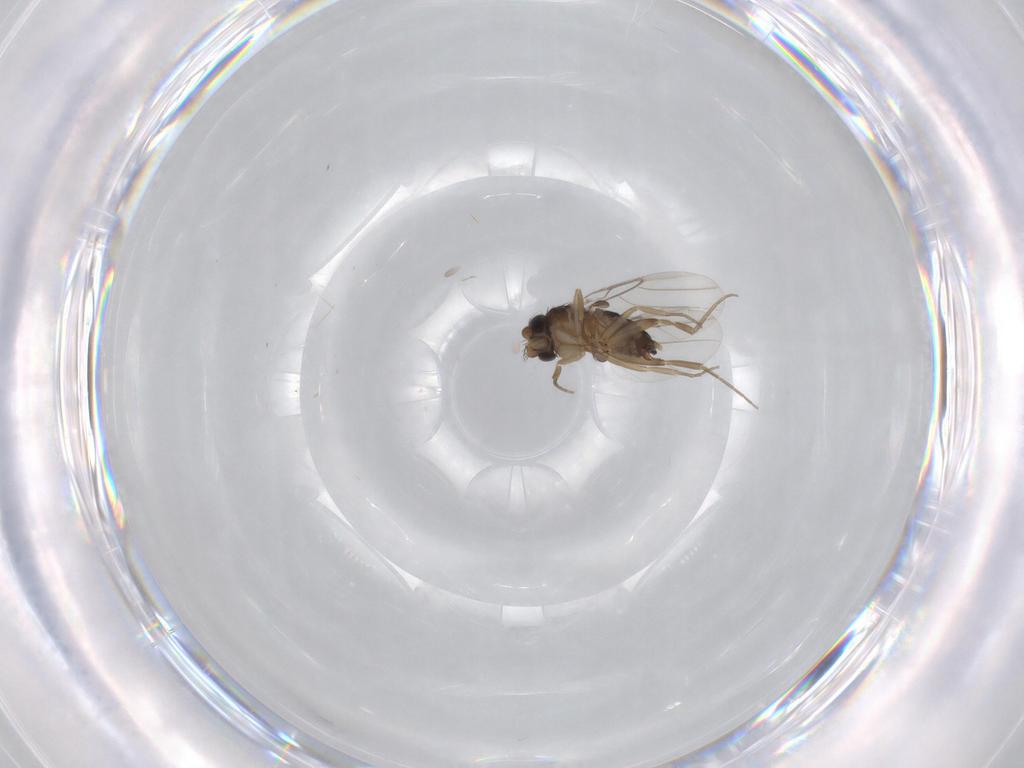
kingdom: Animalia
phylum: Arthropoda
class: Insecta
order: Diptera
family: Phoridae
